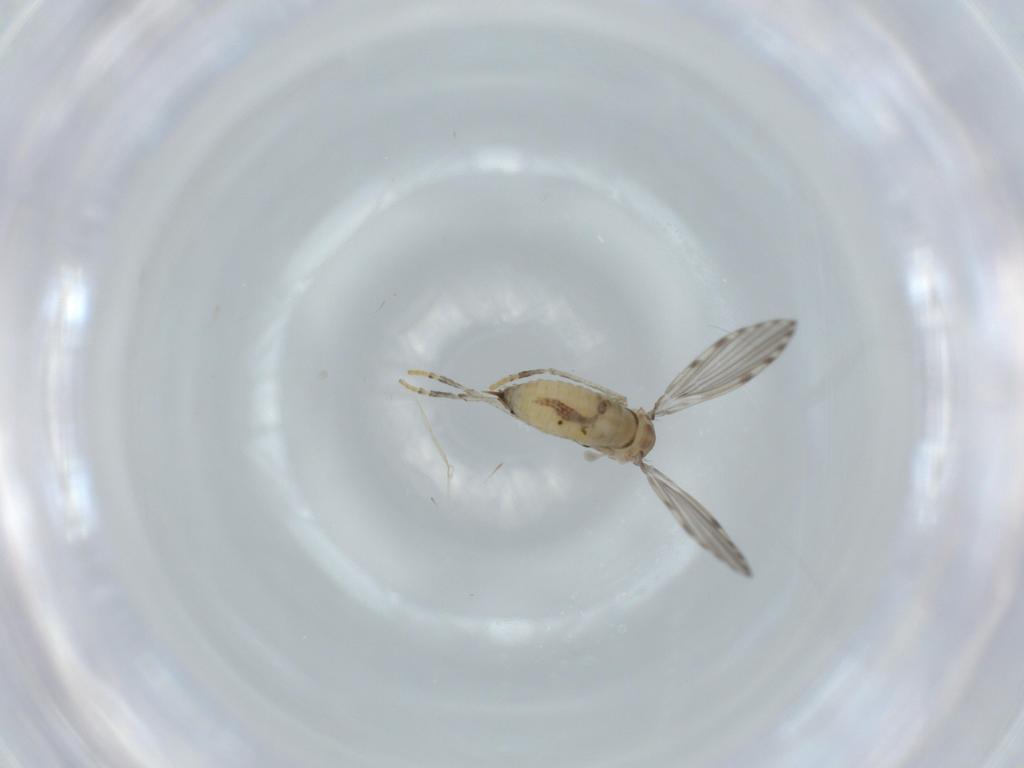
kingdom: Animalia
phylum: Arthropoda
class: Insecta
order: Diptera
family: Psychodidae
